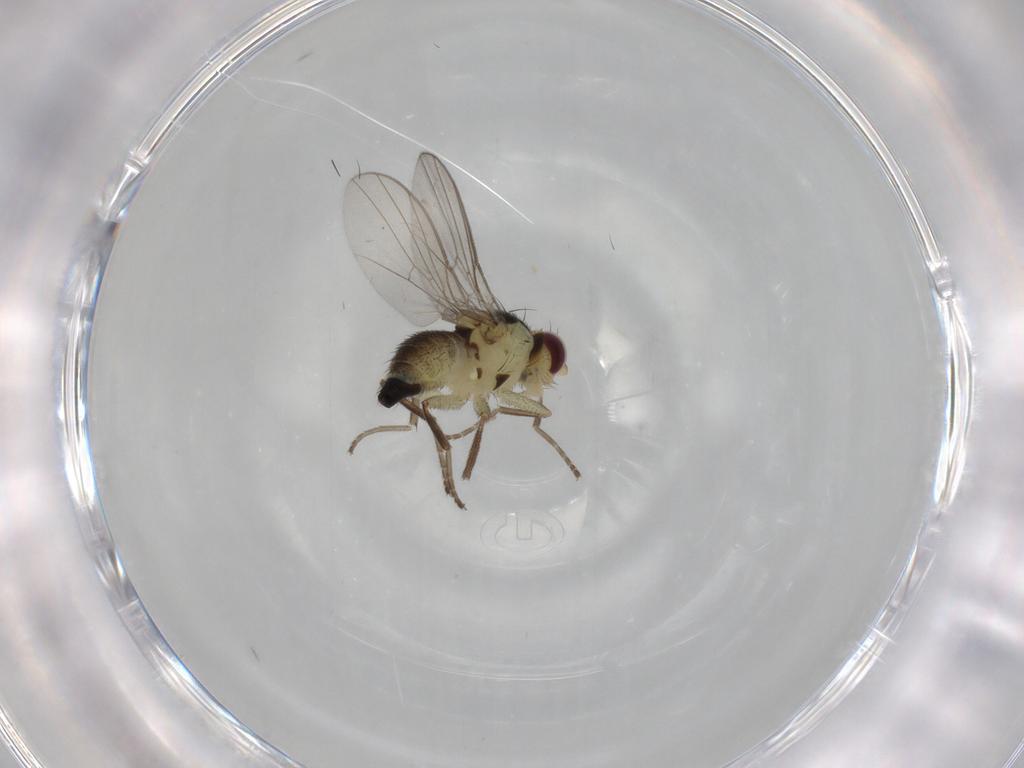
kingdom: Animalia
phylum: Arthropoda
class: Insecta
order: Diptera
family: Agromyzidae
